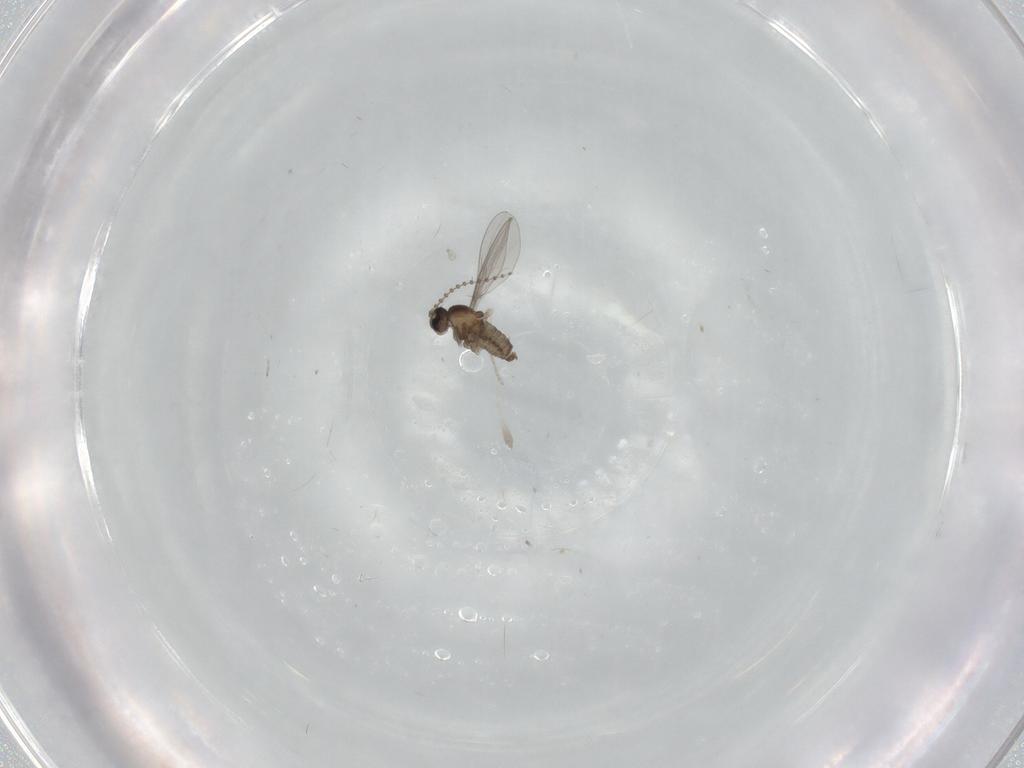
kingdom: Animalia
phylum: Arthropoda
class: Insecta
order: Diptera
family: Cecidomyiidae
